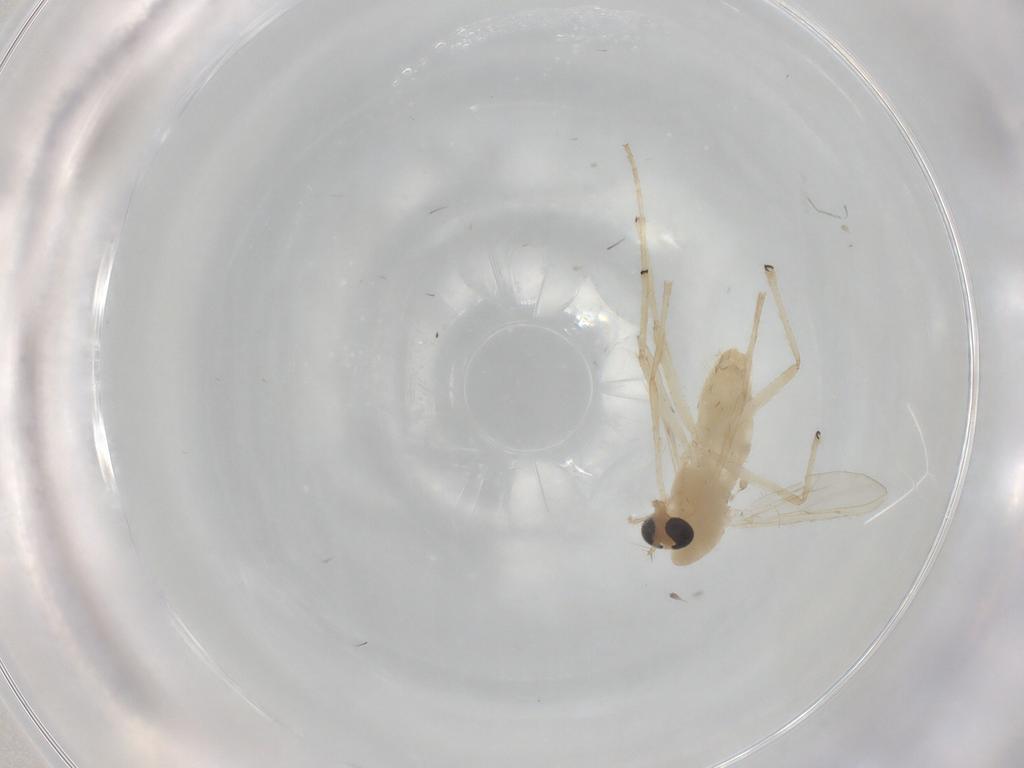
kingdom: Animalia
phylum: Arthropoda
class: Insecta
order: Diptera
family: Chironomidae
